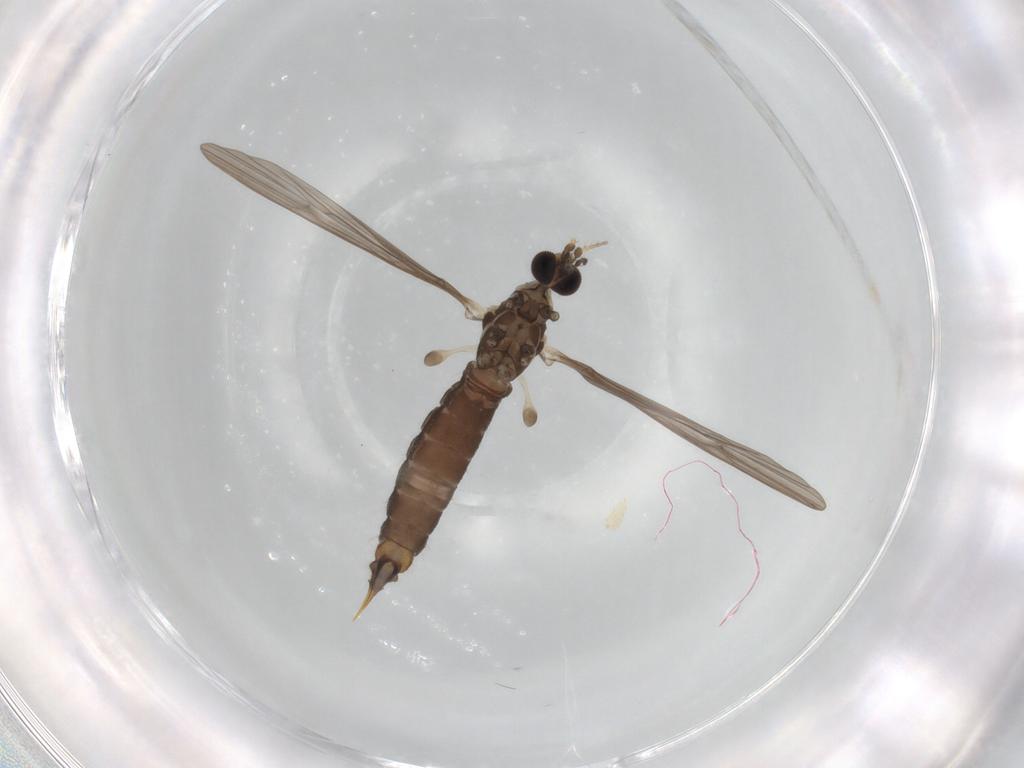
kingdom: Animalia
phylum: Arthropoda
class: Insecta
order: Diptera
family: Limoniidae
